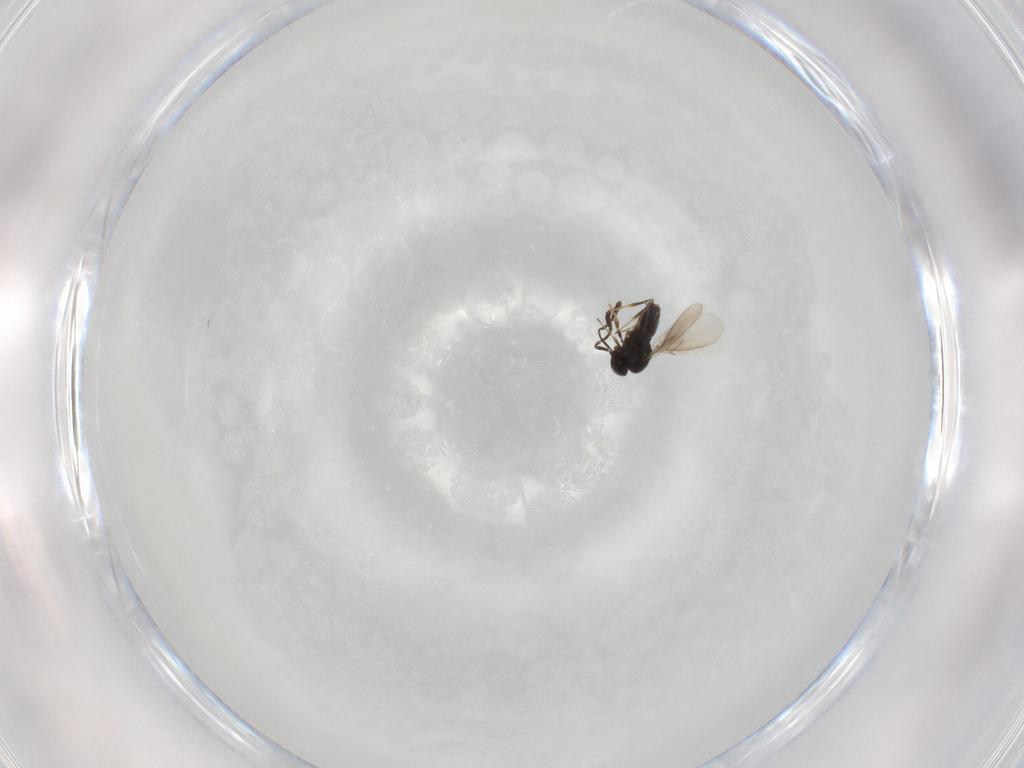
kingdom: Animalia
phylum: Arthropoda
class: Insecta
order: Hymenoptera
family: Scelionidae
